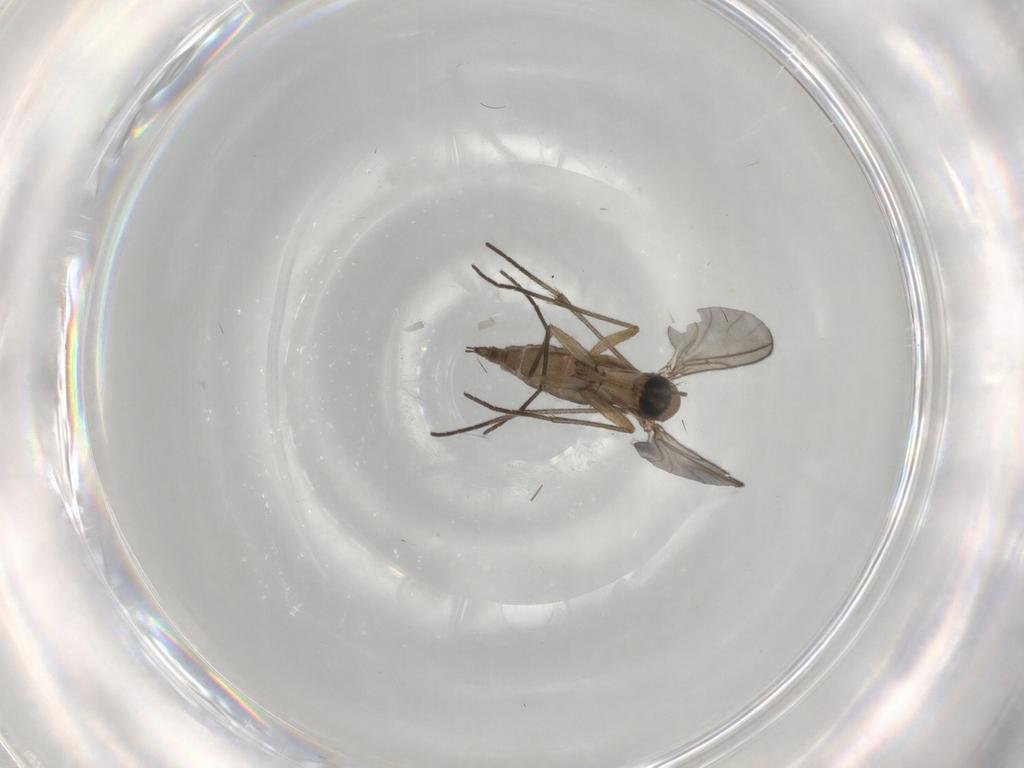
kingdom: Animalia
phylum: Arthropoda
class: Insecta
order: Diptera
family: Sciaridae
